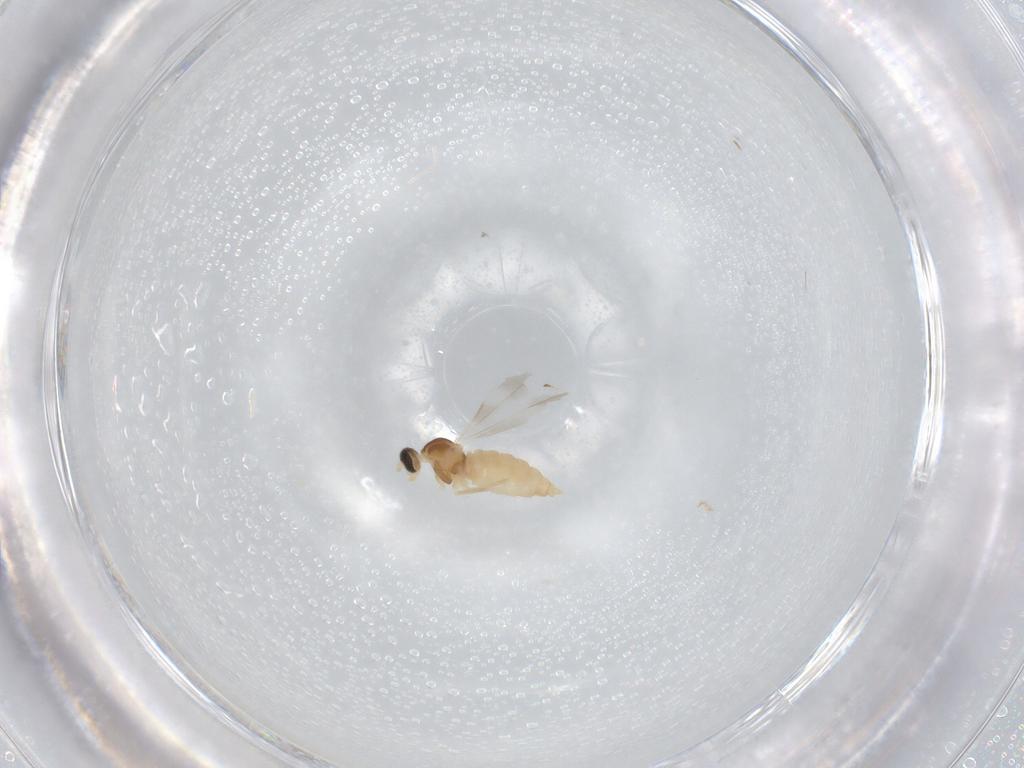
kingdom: Animalia
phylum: Arthropoda
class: Insecta
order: Diptera
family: Cecidomyiidae
